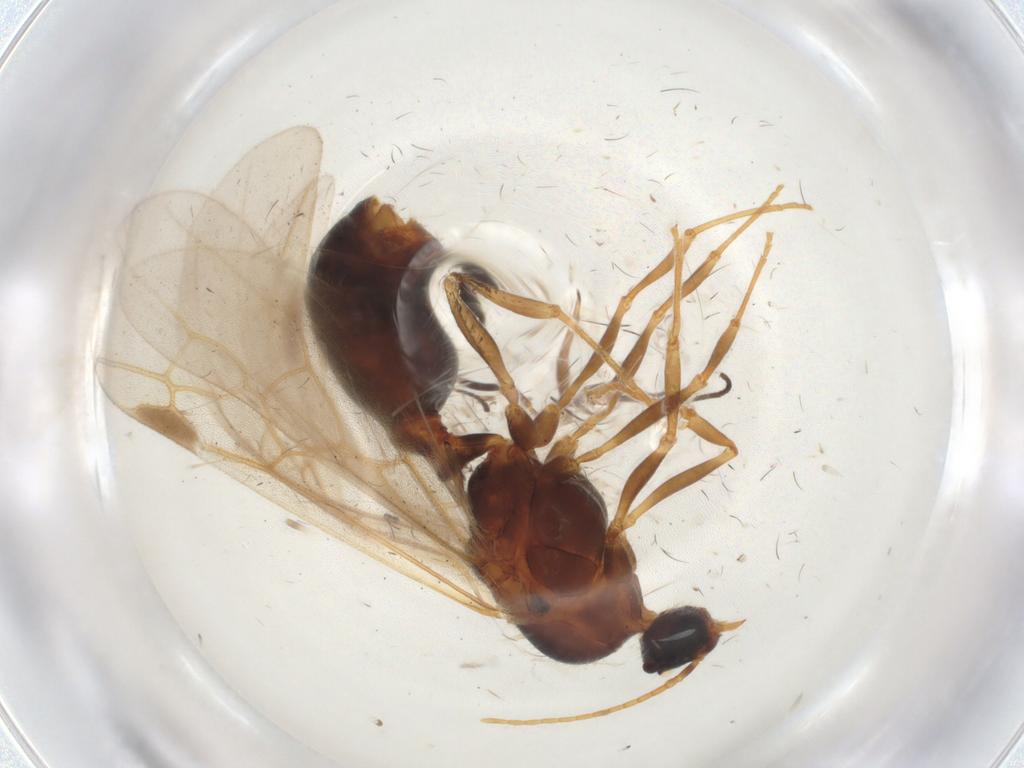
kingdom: Animalia
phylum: Arthropoda
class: Insecta
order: Hymenoptera
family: Formicidae
